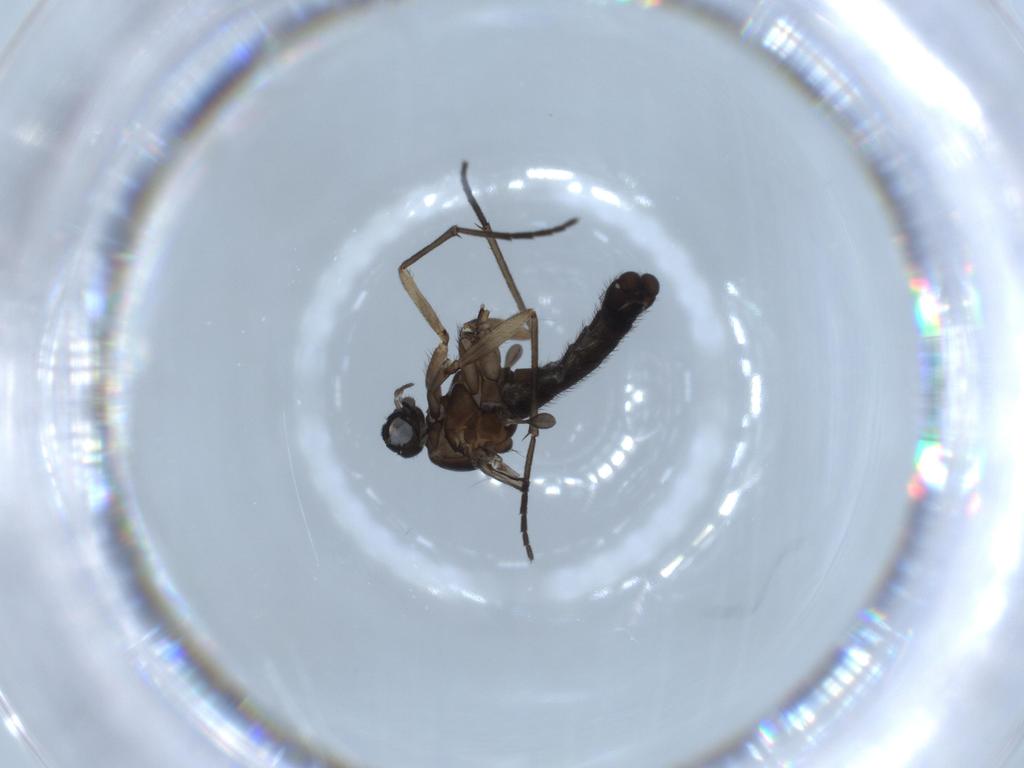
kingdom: Animalia
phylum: Arthropoda
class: Insecta
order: Diptera
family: Sciaridae
